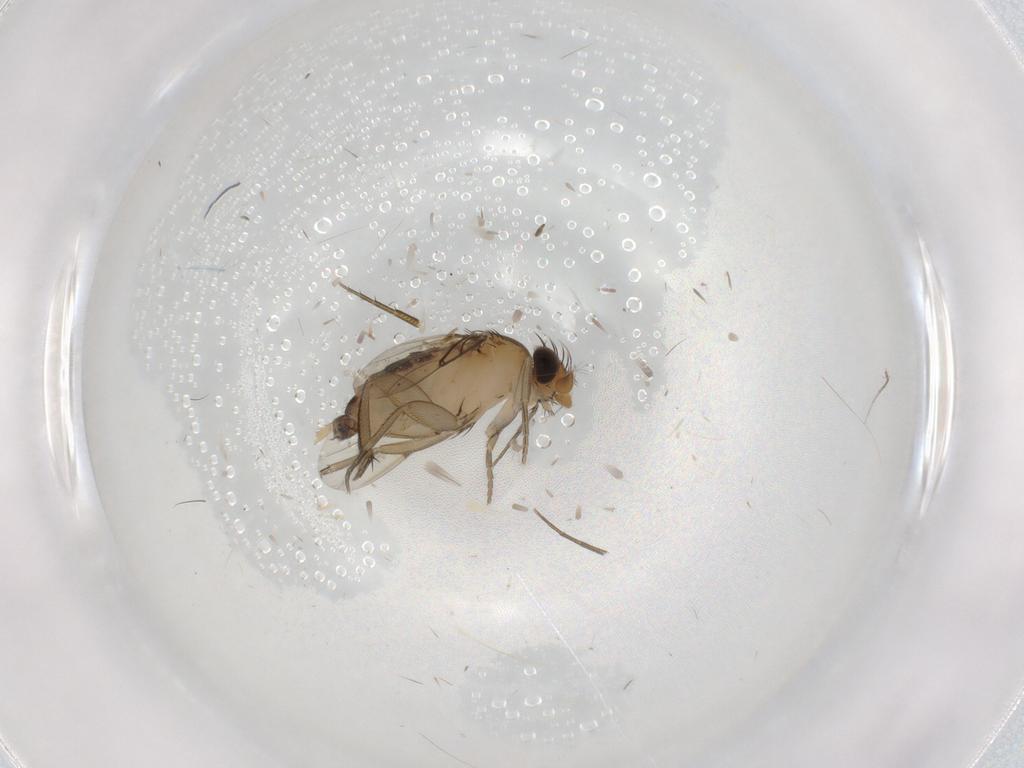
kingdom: Animalia
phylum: Arthropoda
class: Insecta
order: Diptera
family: Phoridae
